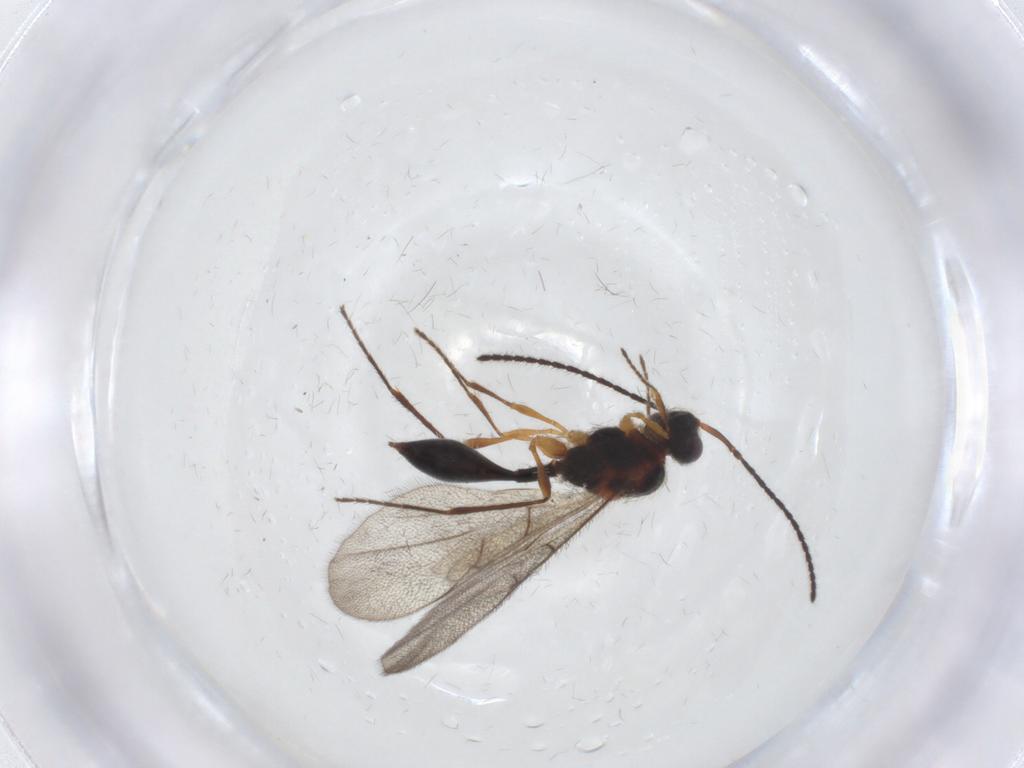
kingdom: Animalia
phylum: Arthropoda
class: Insecta
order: Hymenoptera
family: Diapriidae
